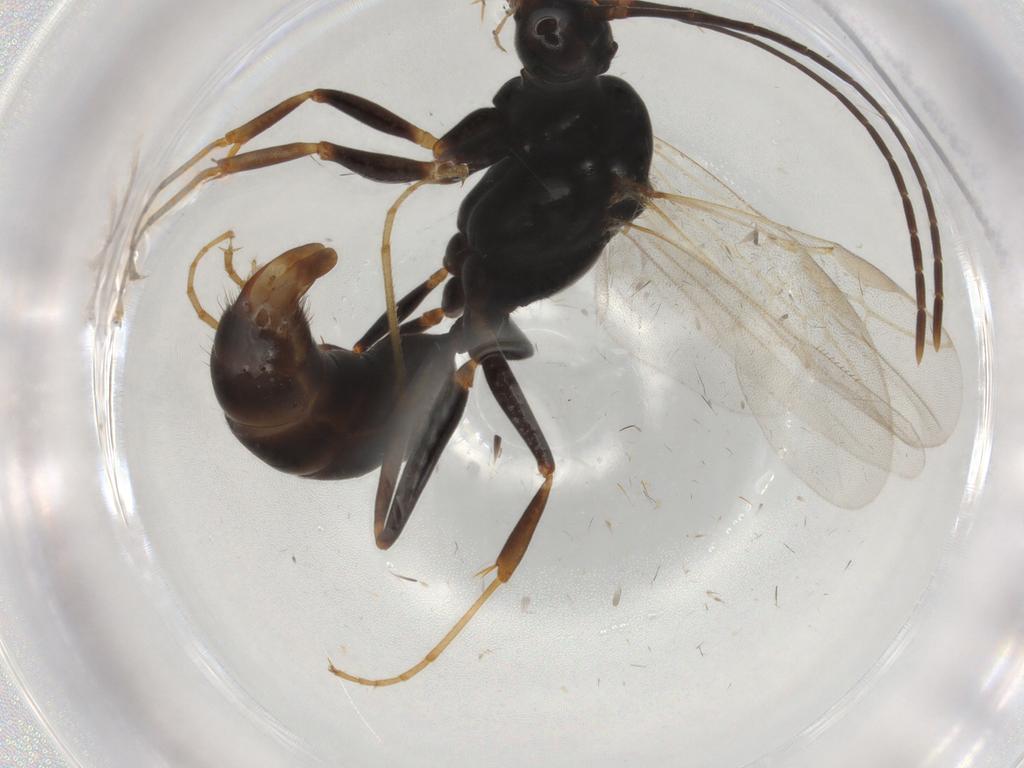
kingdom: Animalia
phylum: Arthropoda
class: Insecta
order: Hymenoptera
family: Formicidae
